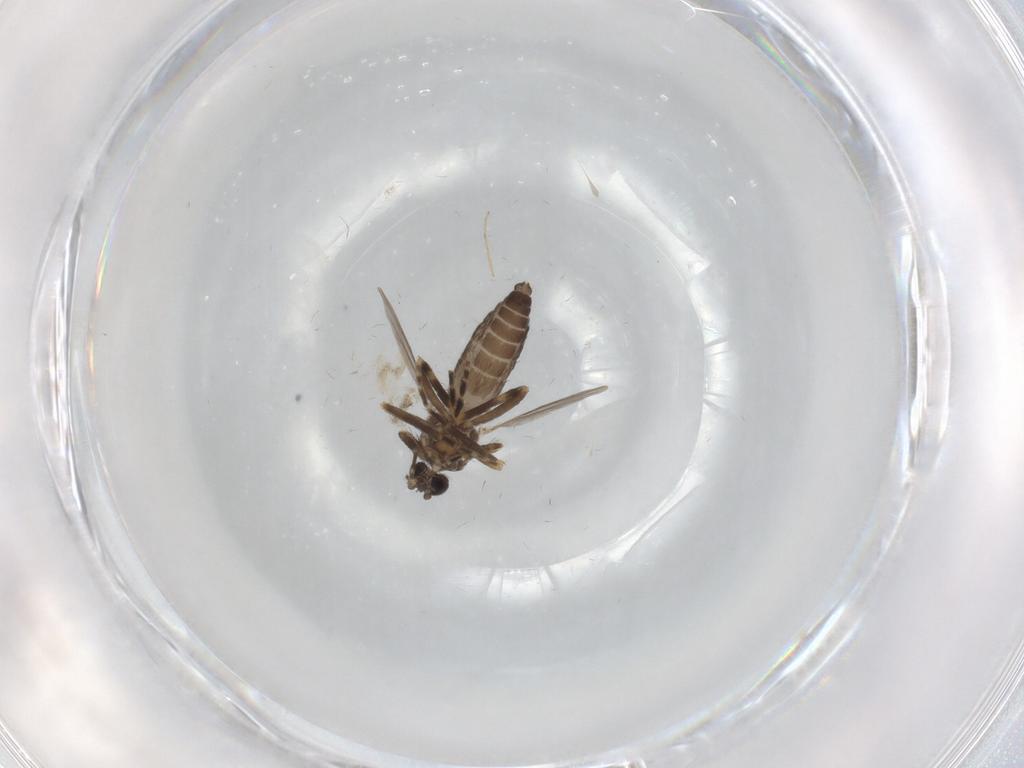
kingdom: Animalia
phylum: Arthropoda
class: Insecta
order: Diptera
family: Ceratopogonidae
